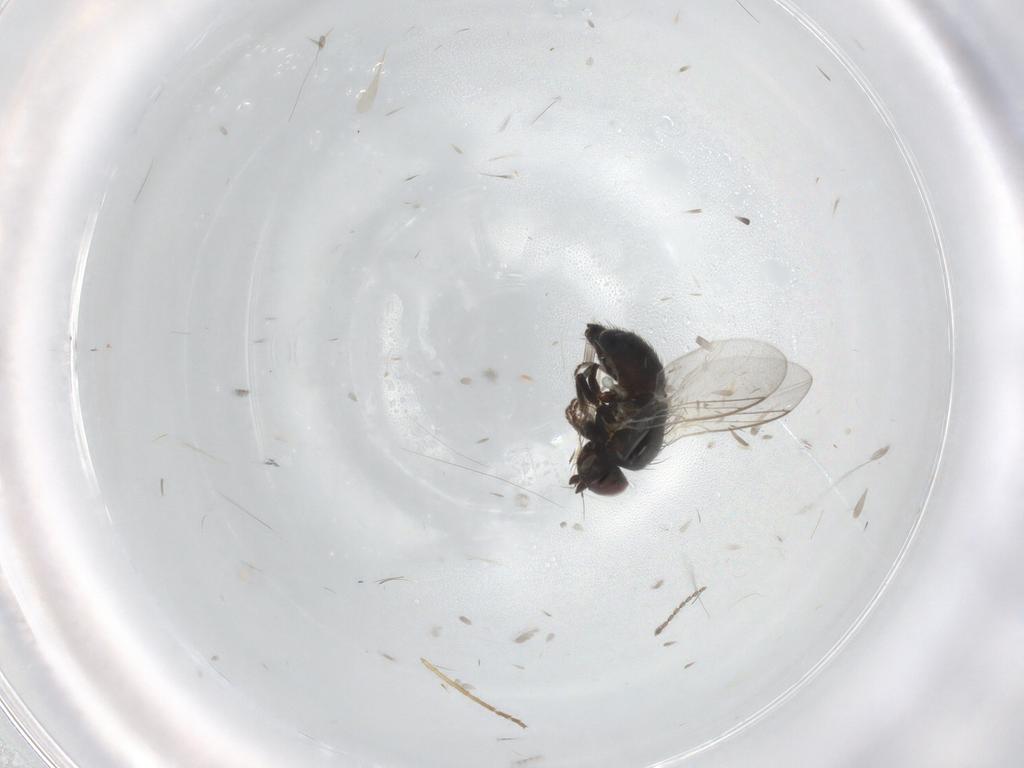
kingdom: Animalia
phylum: Arthropoda
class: Insecta
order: Diptera
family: Agromyzidae
